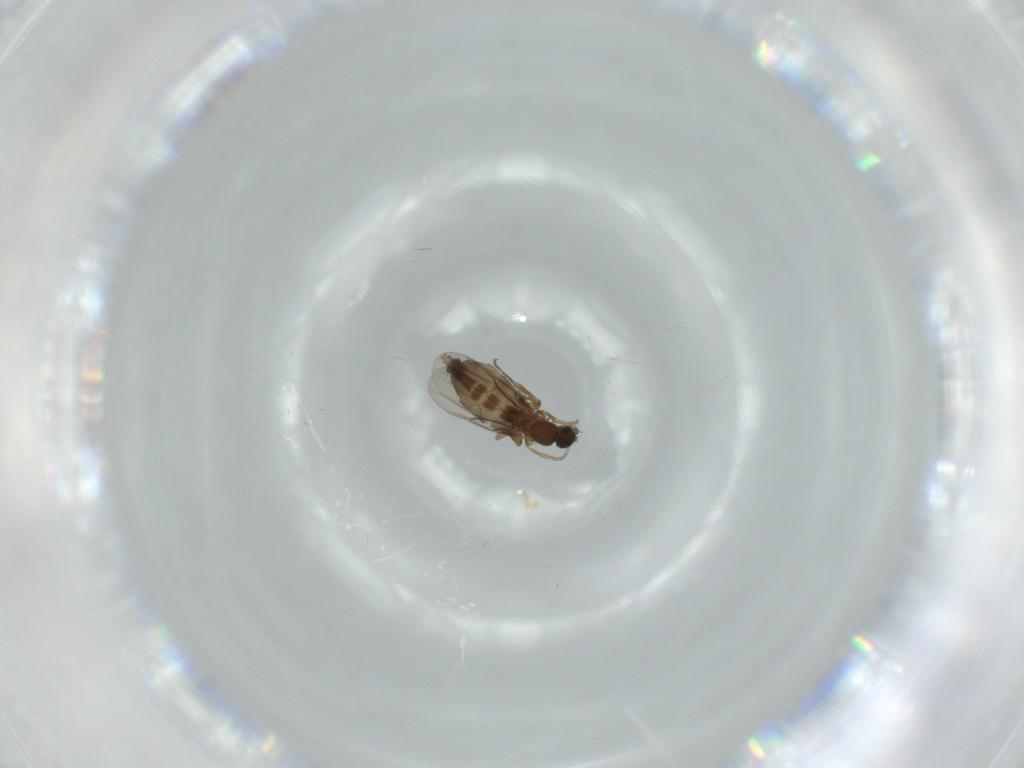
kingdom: Animalia
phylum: Arthropoda
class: Insecta
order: Diptera
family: Phoridae
